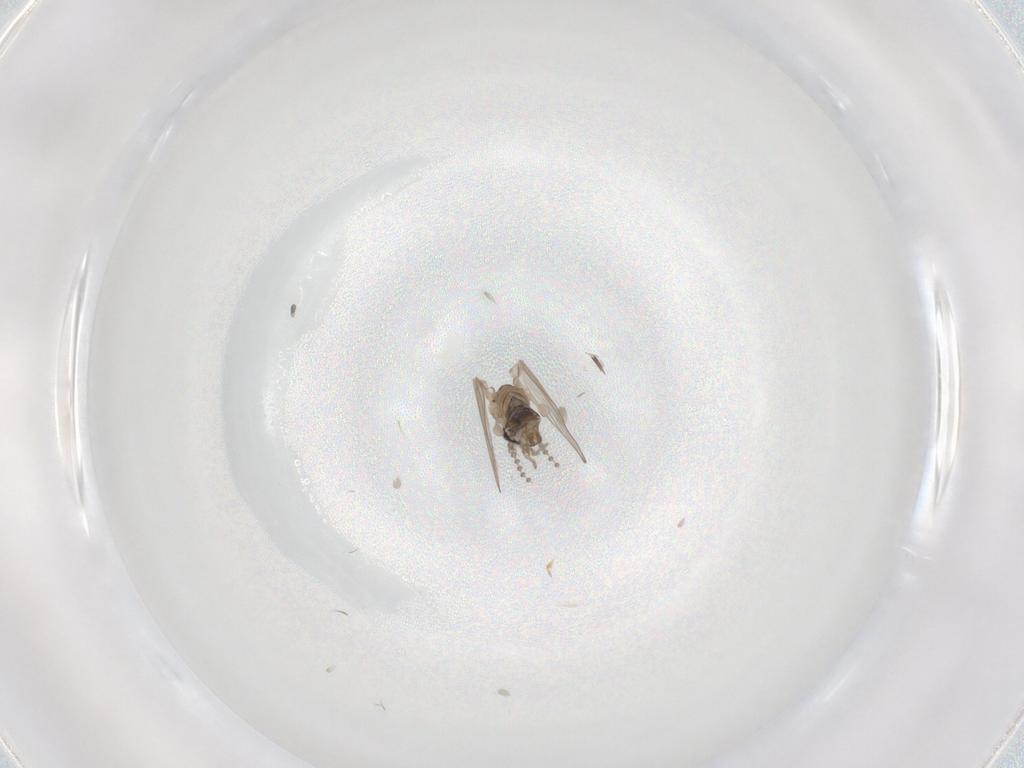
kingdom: Animalia
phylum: Arthropoda
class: Insecta
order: Diptera
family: Psychodidae
